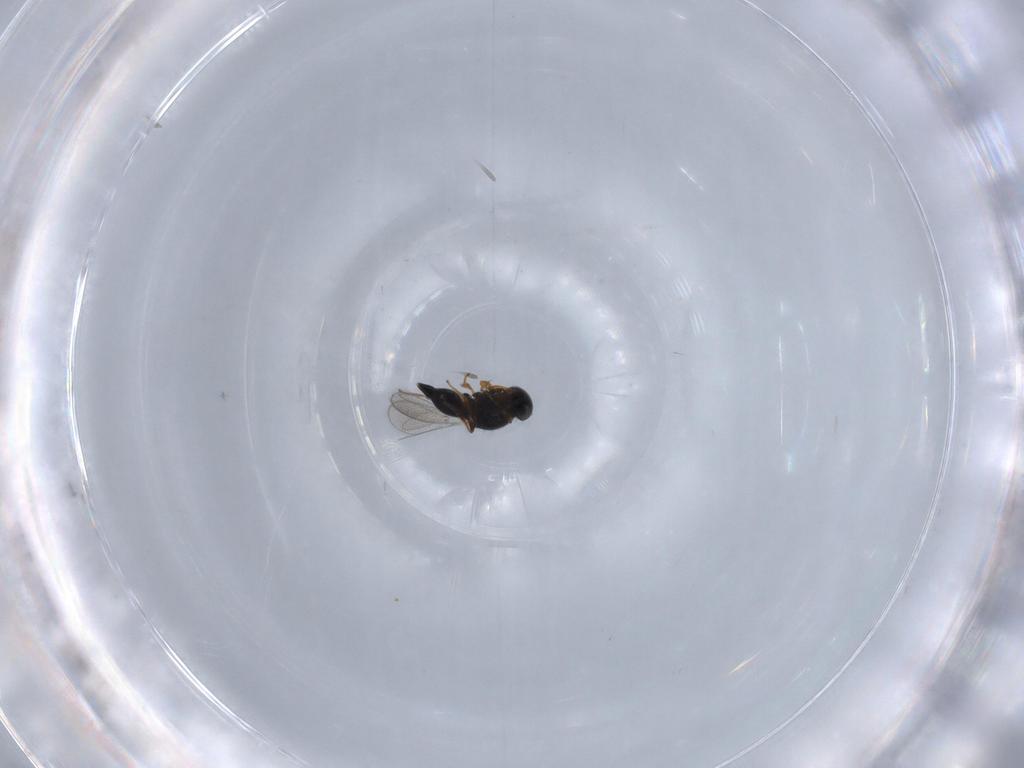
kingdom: Animalia
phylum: Arthropoda
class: Insecta
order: Hymenoptera
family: Platygastridae
